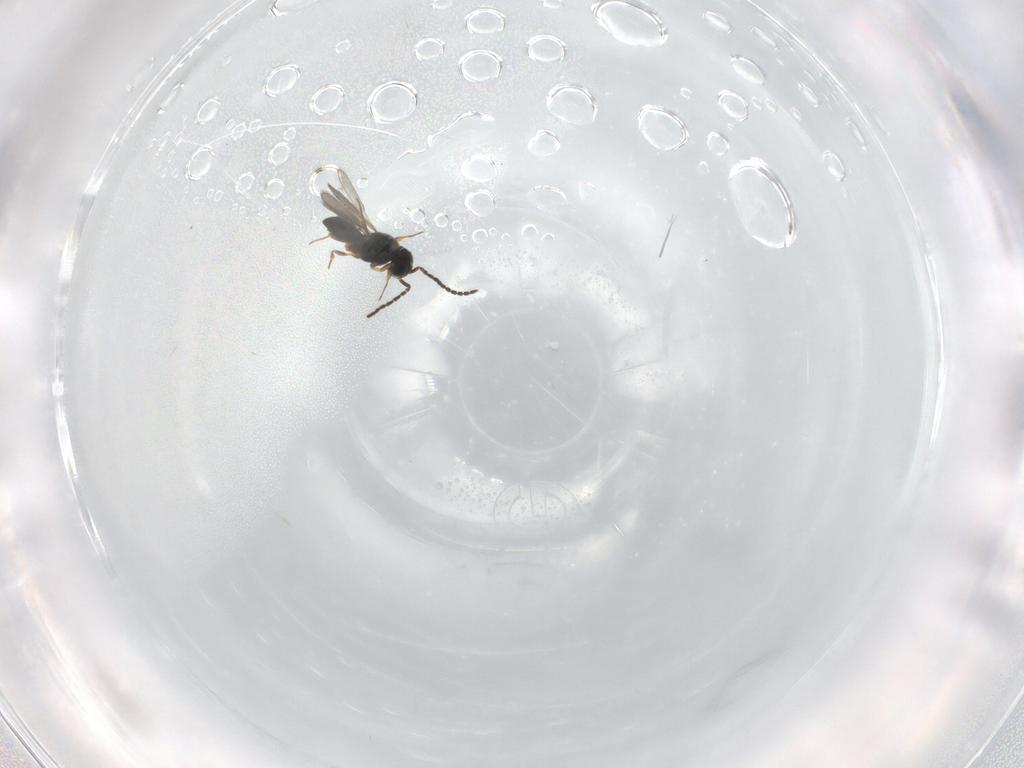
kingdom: Animalia
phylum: Arthropoda
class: Insecta
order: Hymenoptera
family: Scelionidae
